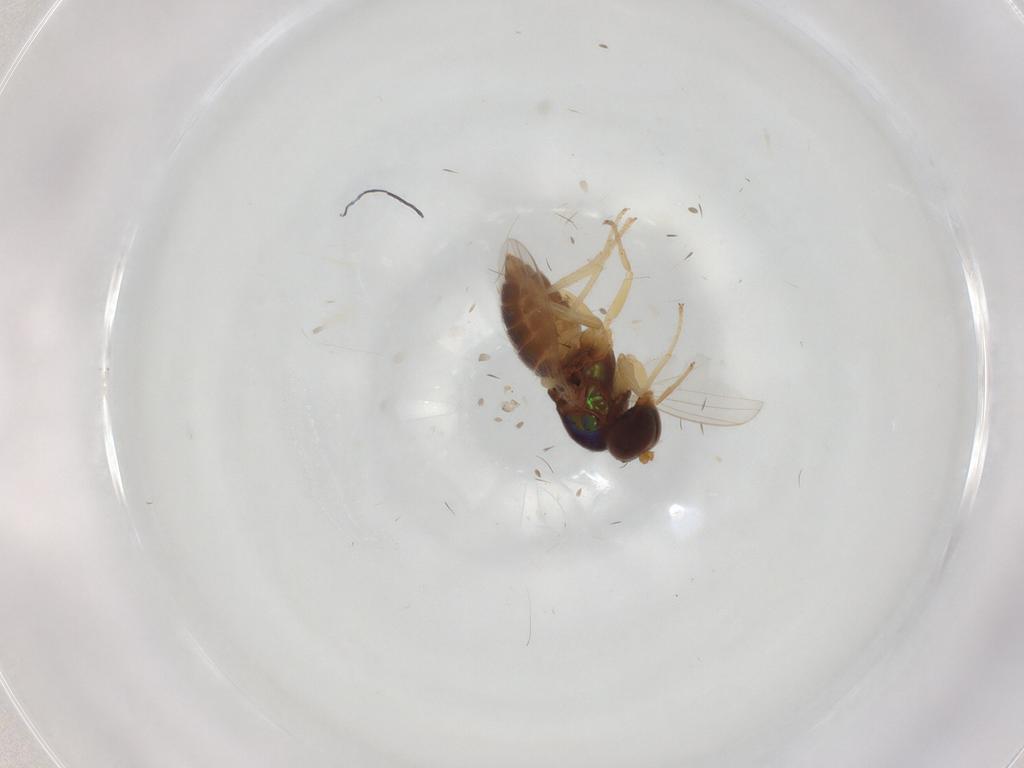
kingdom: Animalia
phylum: Arthropoda
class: Insecta
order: Diptera
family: Dolichopodidae
